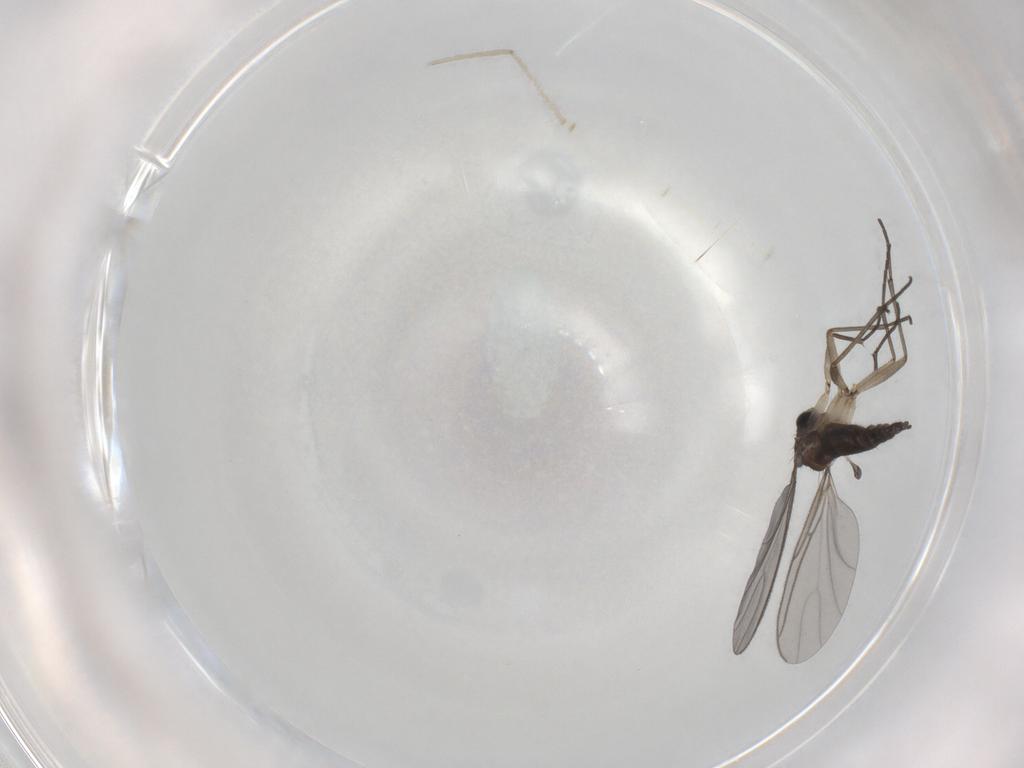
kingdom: Animalia
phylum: Arthropoda
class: Insecta
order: Diptera
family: Sciaridae
